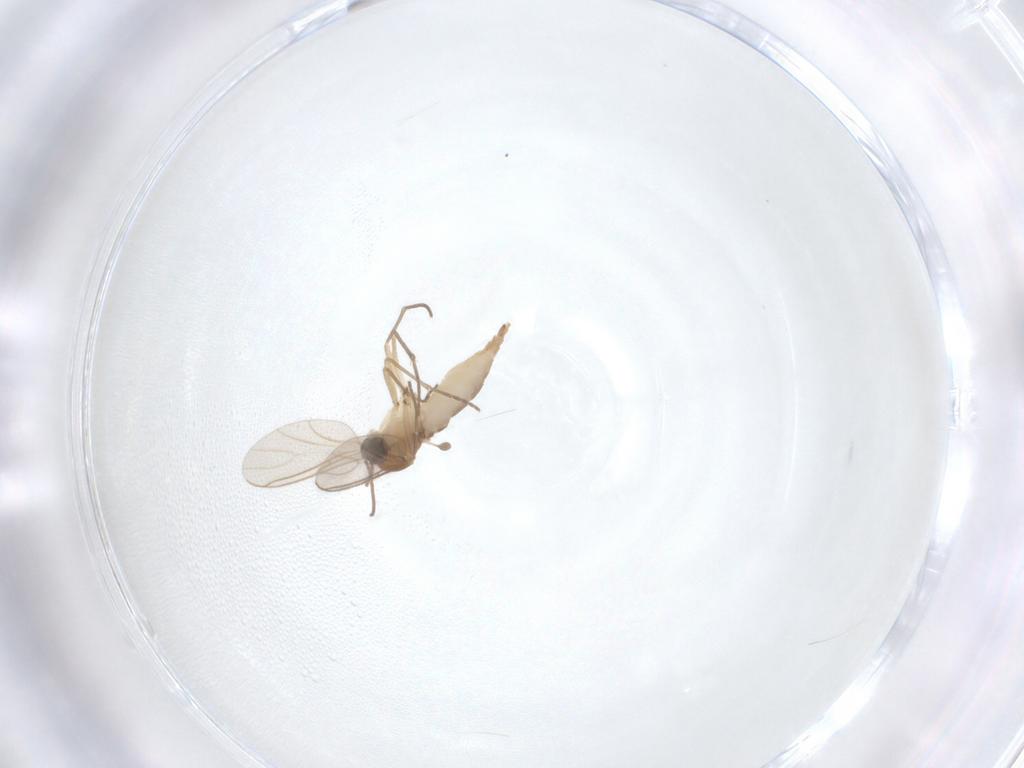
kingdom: Animalia
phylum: Arthropoda
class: Insecta
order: Diptera
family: Sciaridae
